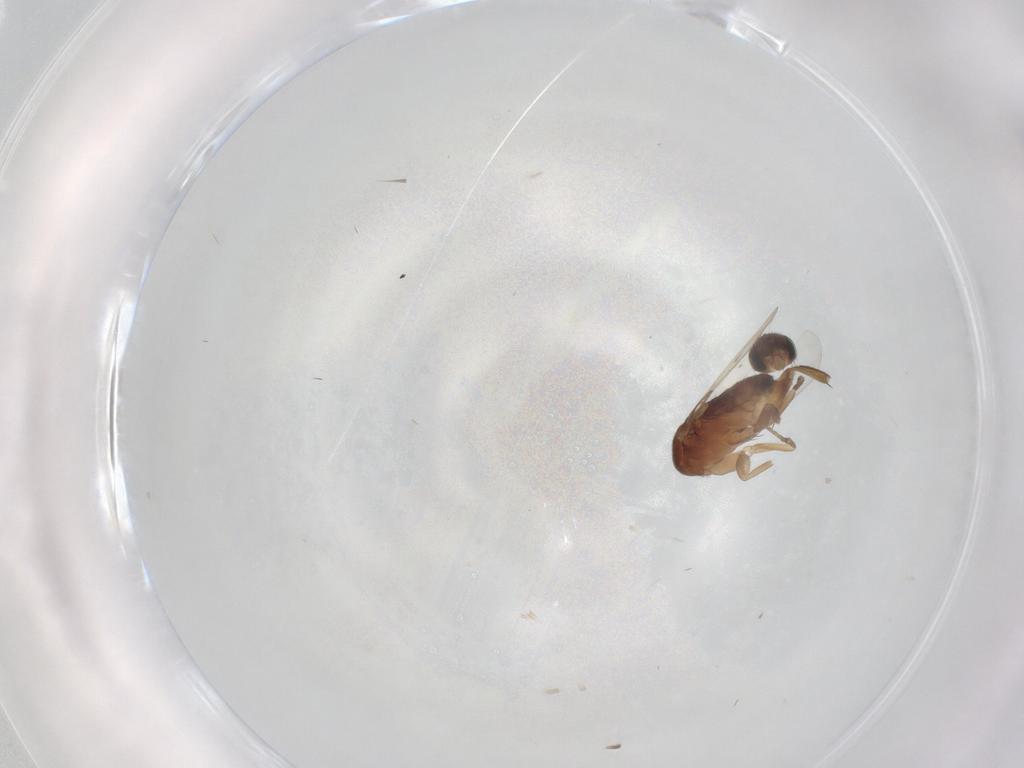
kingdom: Animalia
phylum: Arthropoda
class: Insecta
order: Diptera
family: Phoridae
